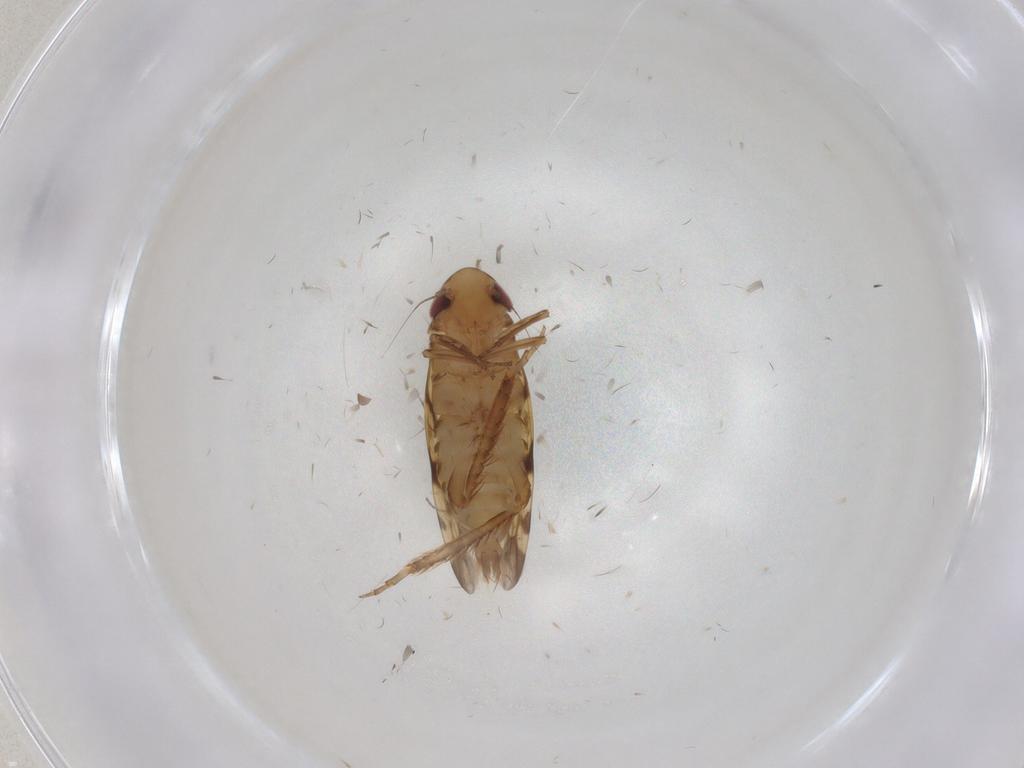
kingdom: Animalia
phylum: Arthropoda
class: Insecta
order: Hemiptera
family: Cicadellidae
